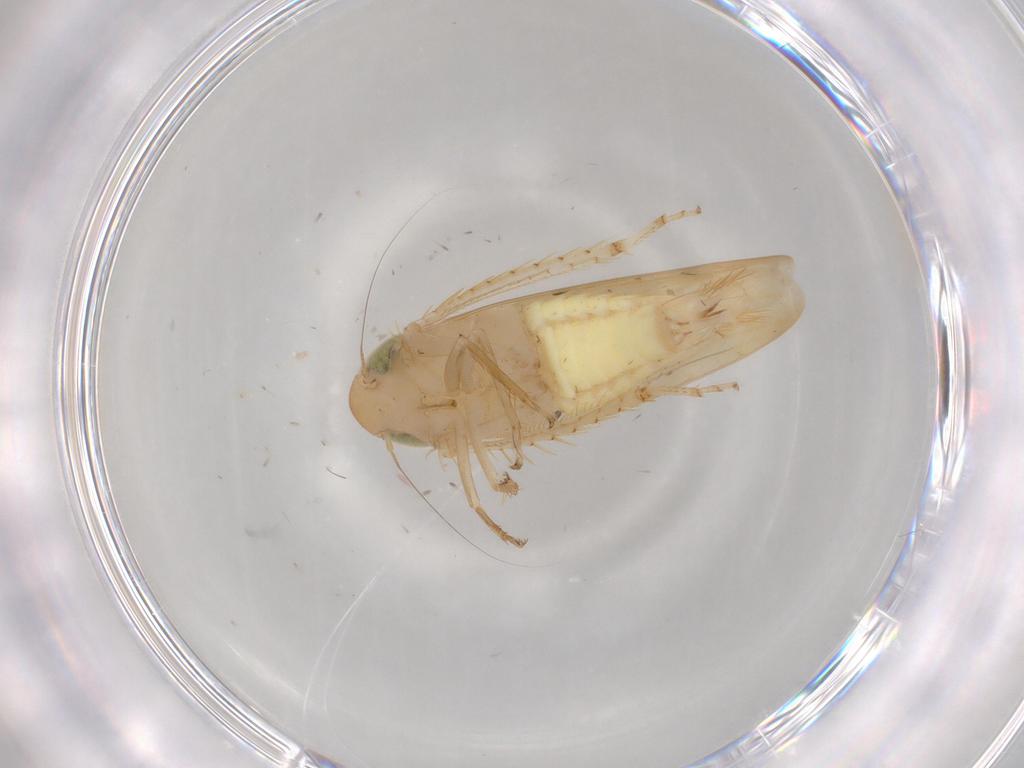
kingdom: Animalia
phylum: Arthropoda
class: Insecta
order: Hemiptera
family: Cicadellidae
